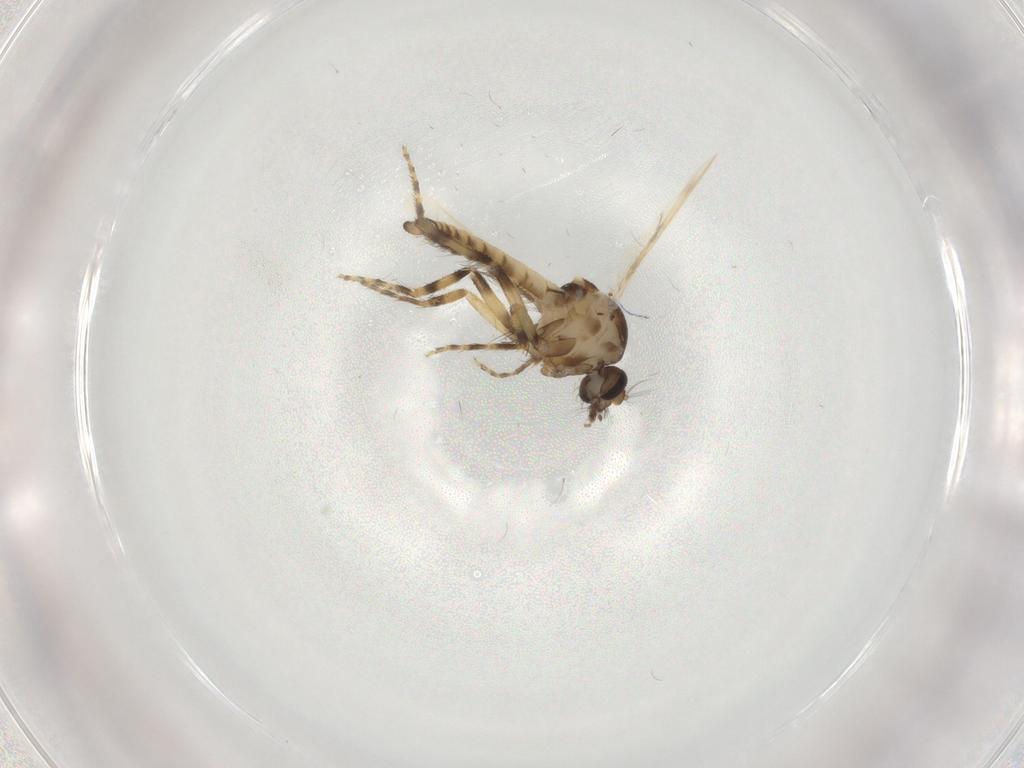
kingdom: Animalia
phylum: Arthropoda
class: Insecta
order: Diptera
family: Ceratopogonidae
